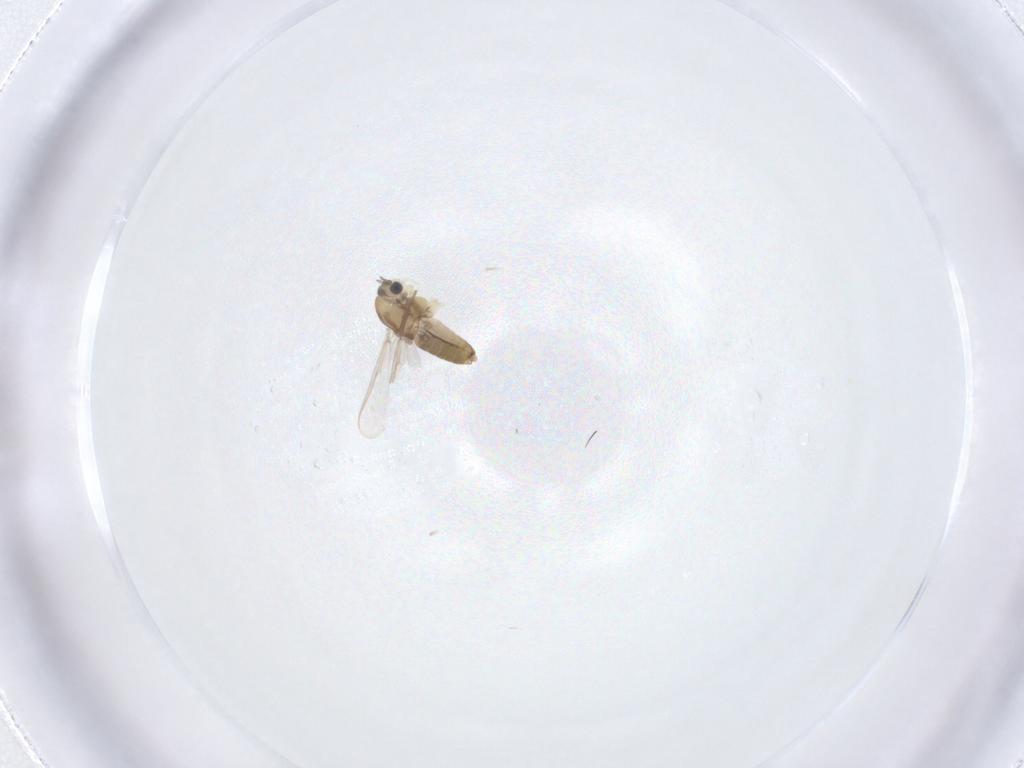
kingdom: Animalia
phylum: Arthropoda
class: Insecta
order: Diptera
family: Chironomidae
